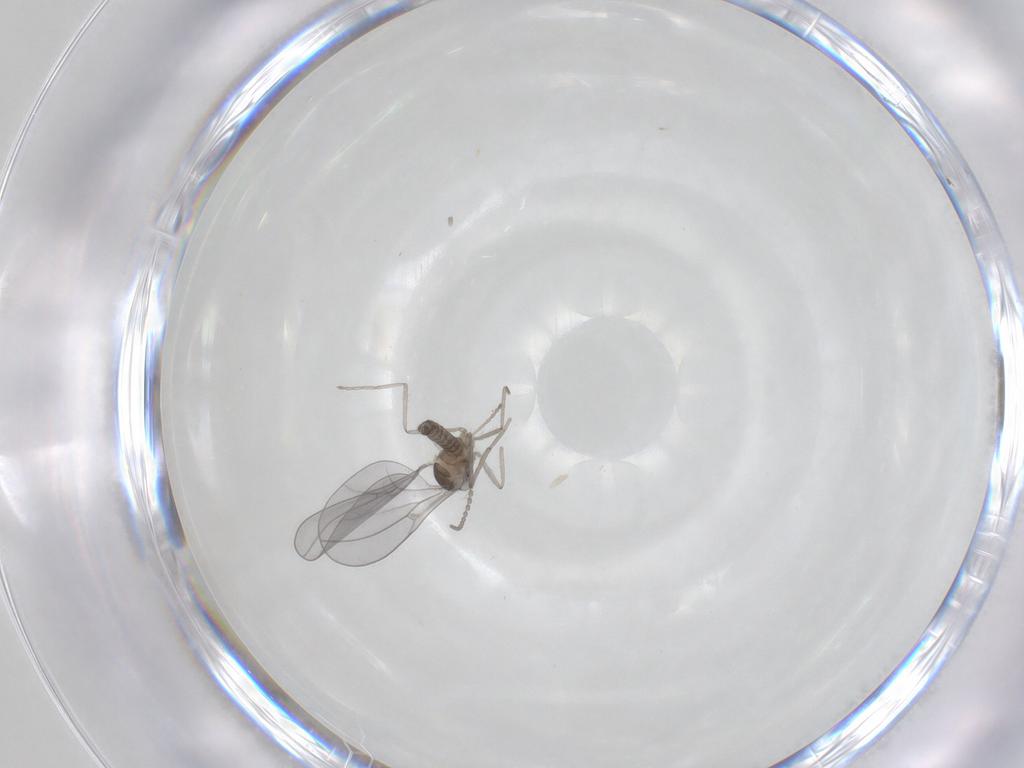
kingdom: Animalia
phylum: Arthropoda
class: Insecta
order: Diptera
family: Cecidomyiidae
